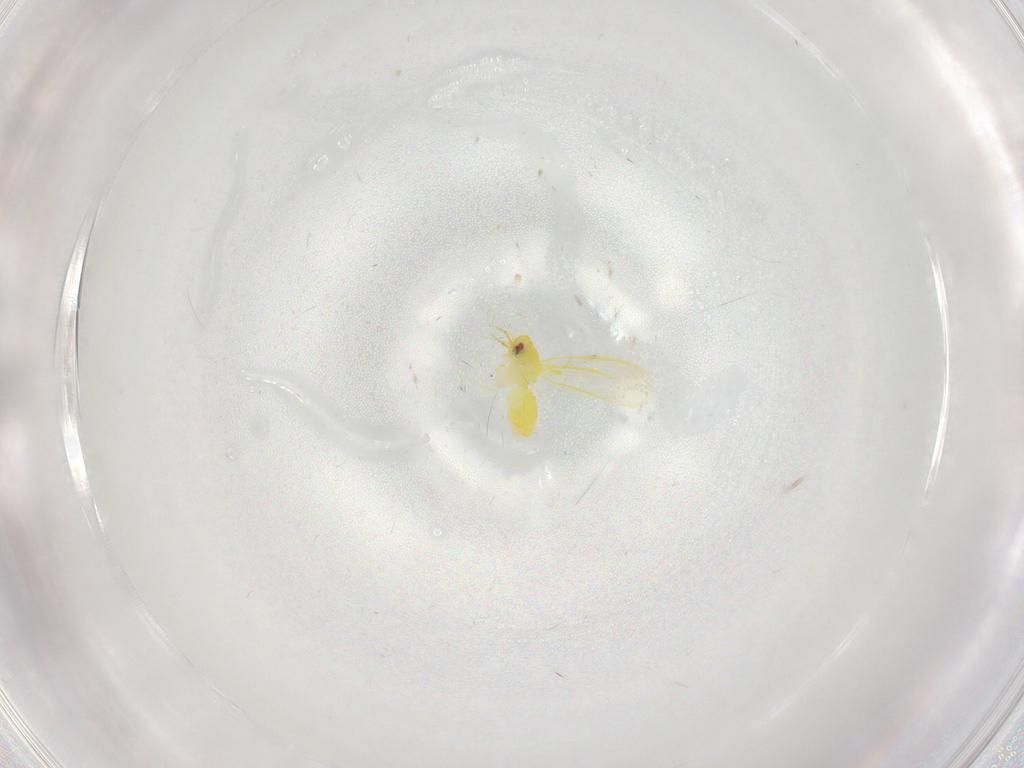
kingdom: Animalia
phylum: Arthropoda
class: Insecta
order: Hemiptera
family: Aleyrodidae
